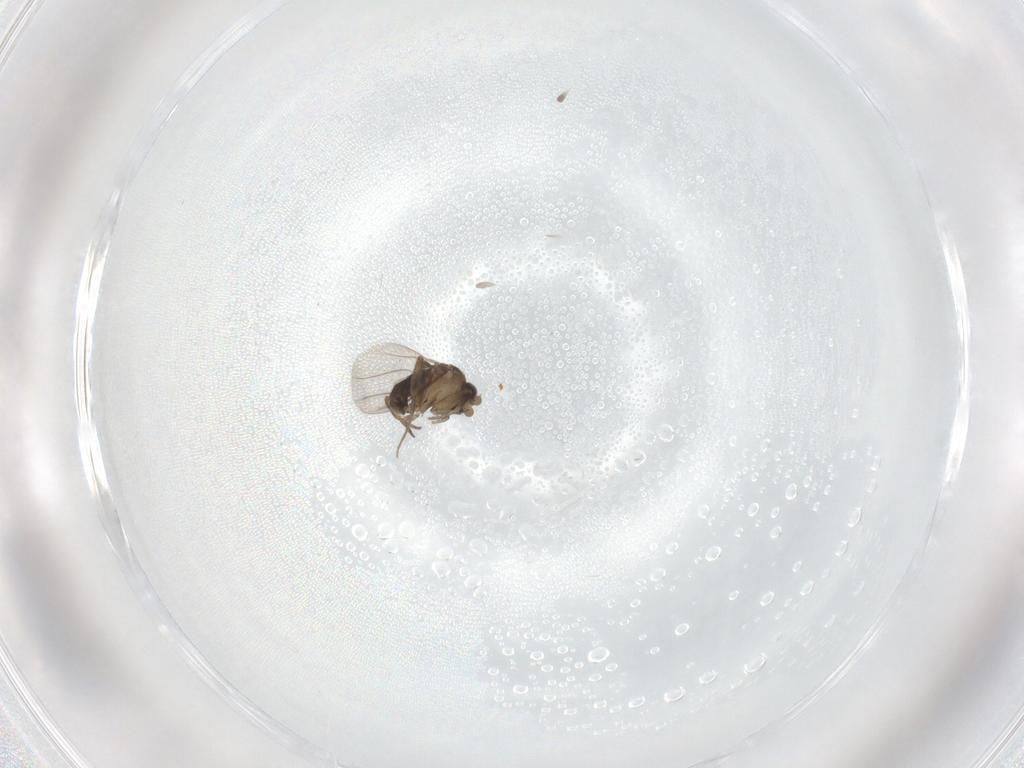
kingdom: Animalia
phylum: Arthropoda
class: Insecta
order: Diptera
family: Phoridae
